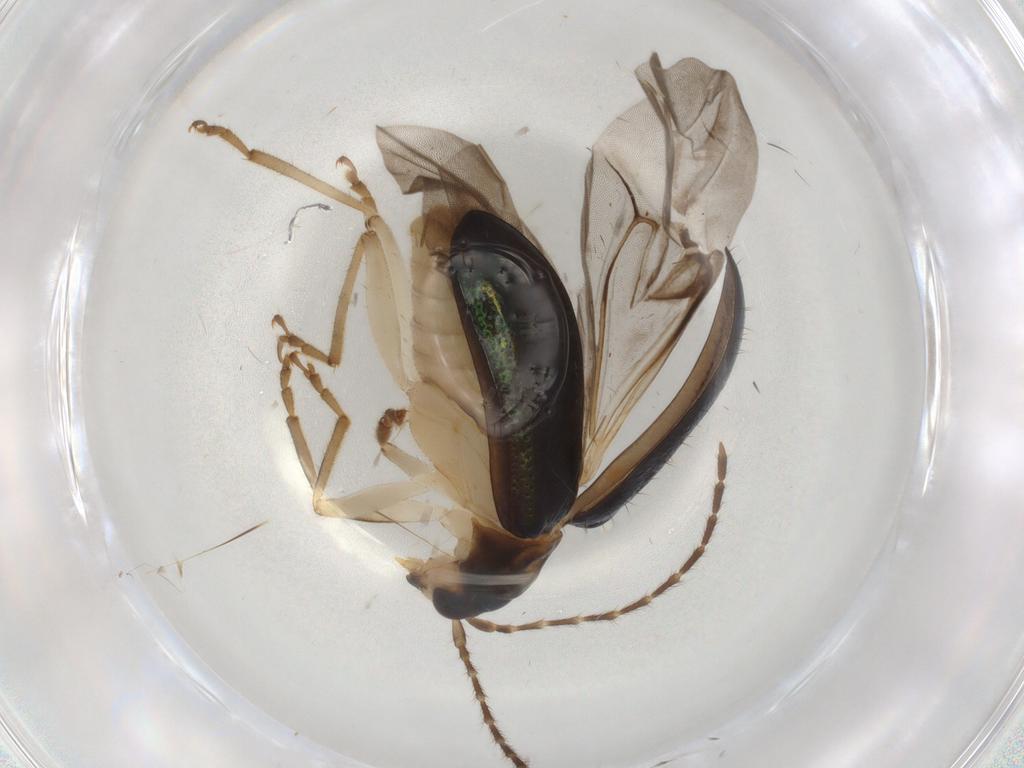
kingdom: Animalia
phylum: Arthropoda
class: Insecta
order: Coleoptera
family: Chrysomelidae
